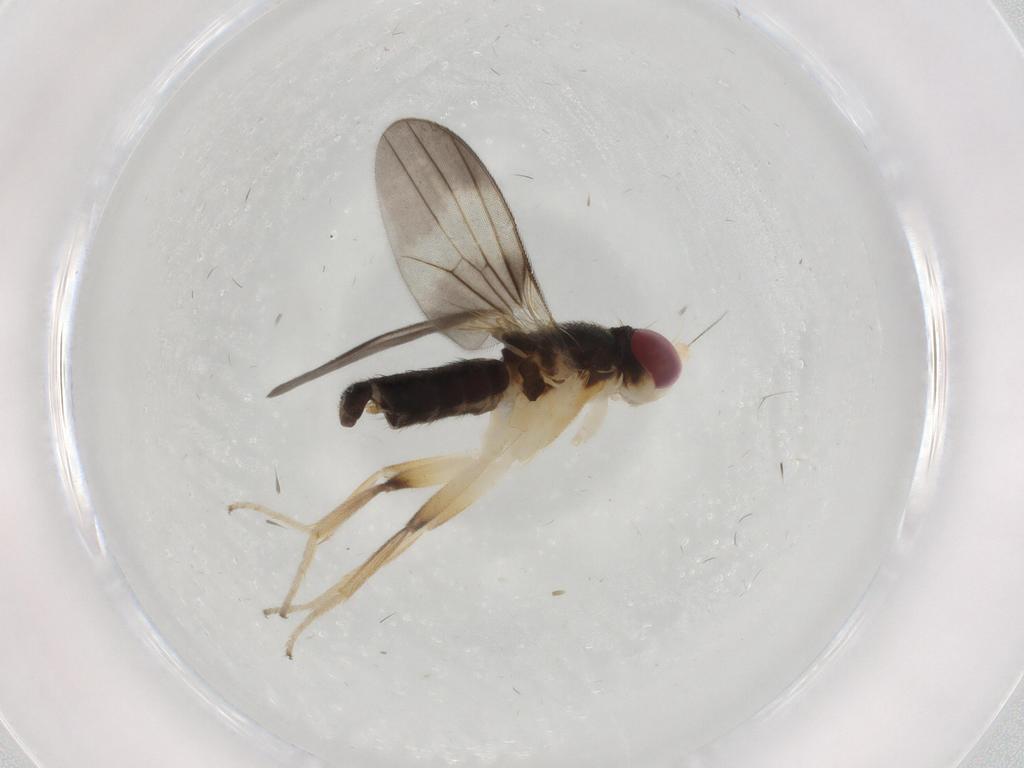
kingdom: Animalia
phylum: Arthropoda
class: Insecta
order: Diptera
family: Clusiidae
